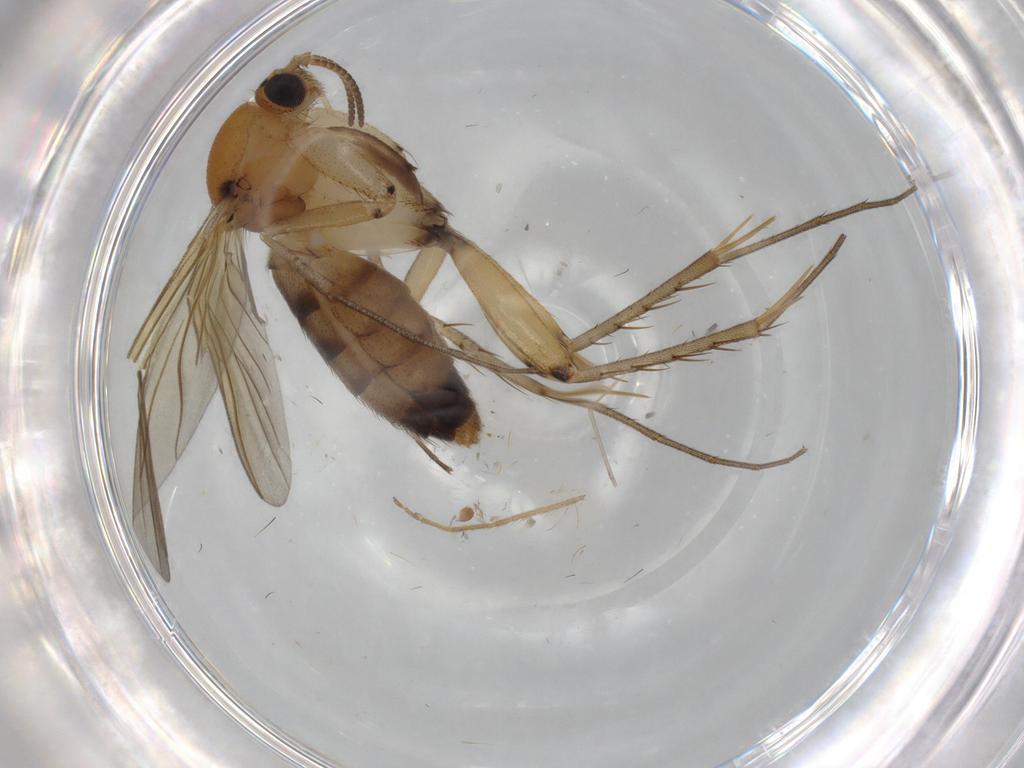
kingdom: Animalia
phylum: Arthropoda
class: Insecta
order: Diptera
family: Mycetophilidae
